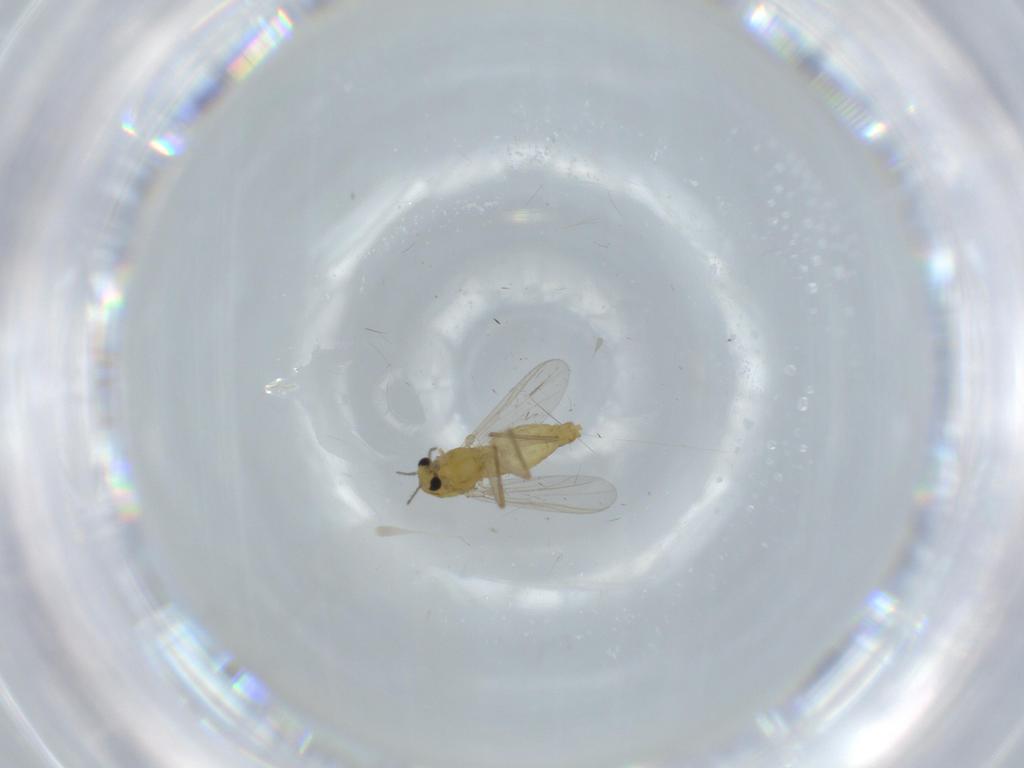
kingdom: Animalia
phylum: Arthropoda
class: Insecta
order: Diptera
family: Chironomidae
